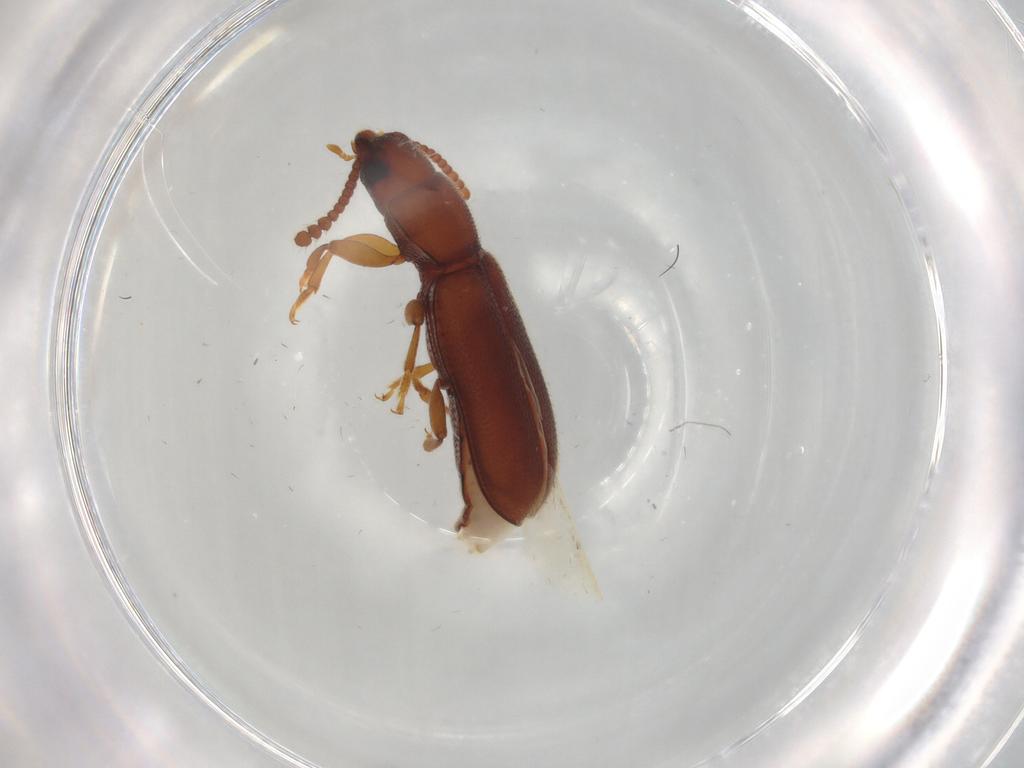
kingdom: Animalia
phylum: Arthropoda
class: Insecta
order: Coleoptera
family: Tenebrionidae
